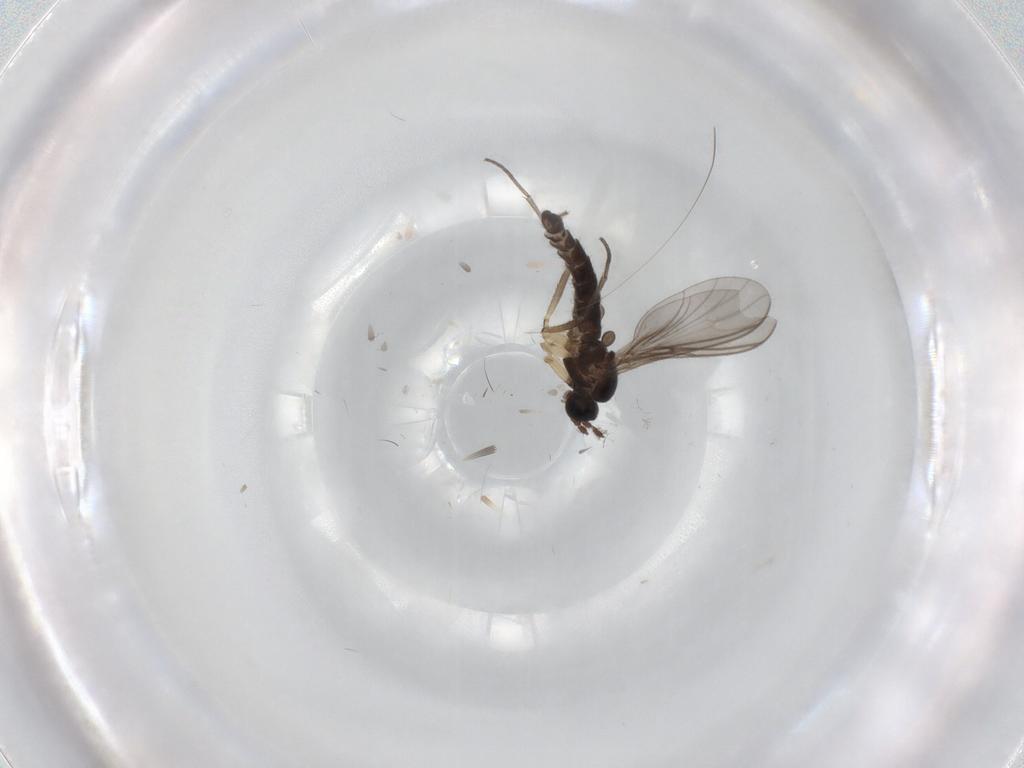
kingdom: Animalia
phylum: Arthropoda
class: Insecta
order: Diptera
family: Sciaridae
